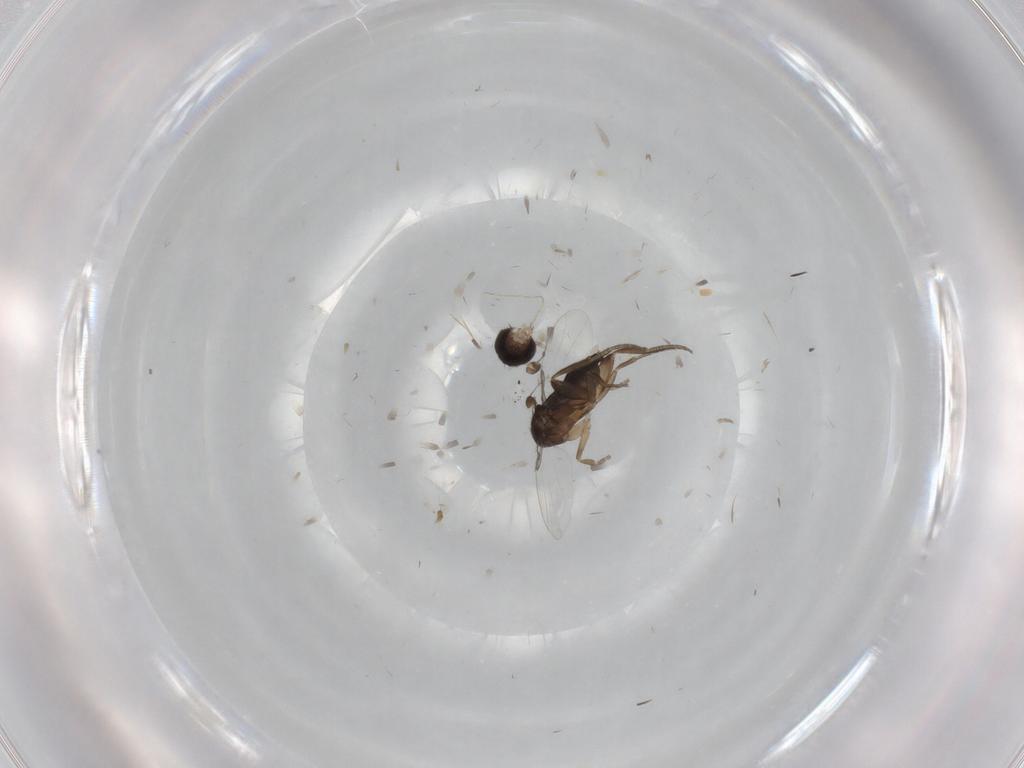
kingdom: Animalia
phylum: Arthropoda
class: Insecta
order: Diptera
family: Phoridae
